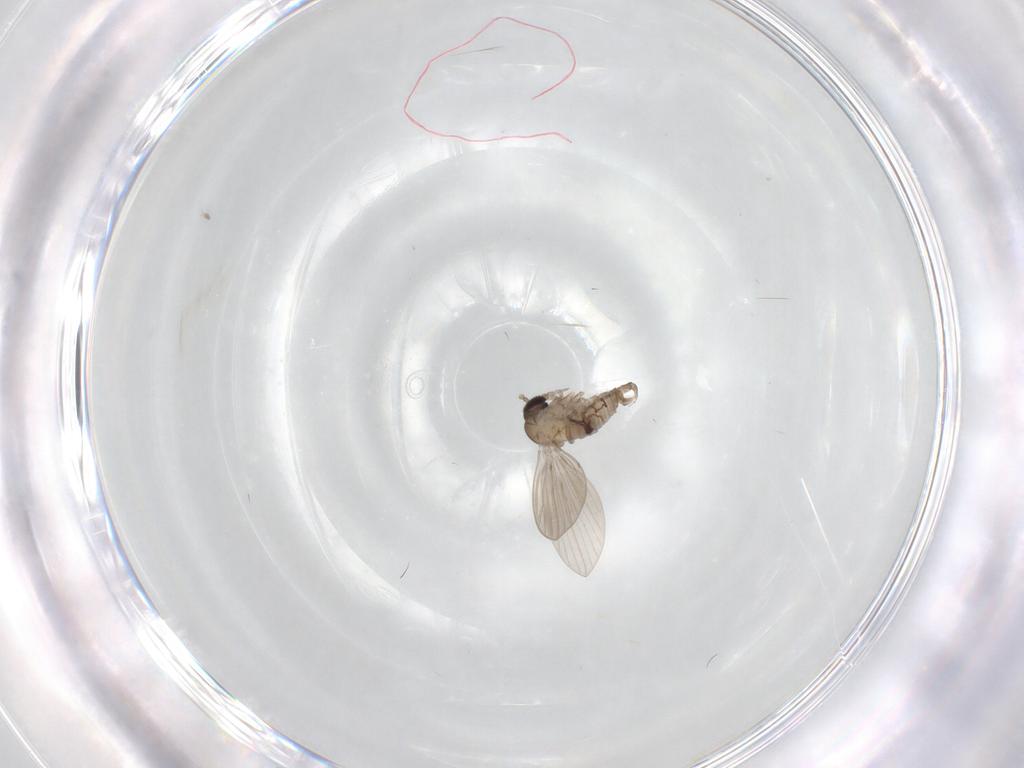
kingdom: Animalia
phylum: Arthropoda
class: Insecta
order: Diptera
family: Psychodidae
